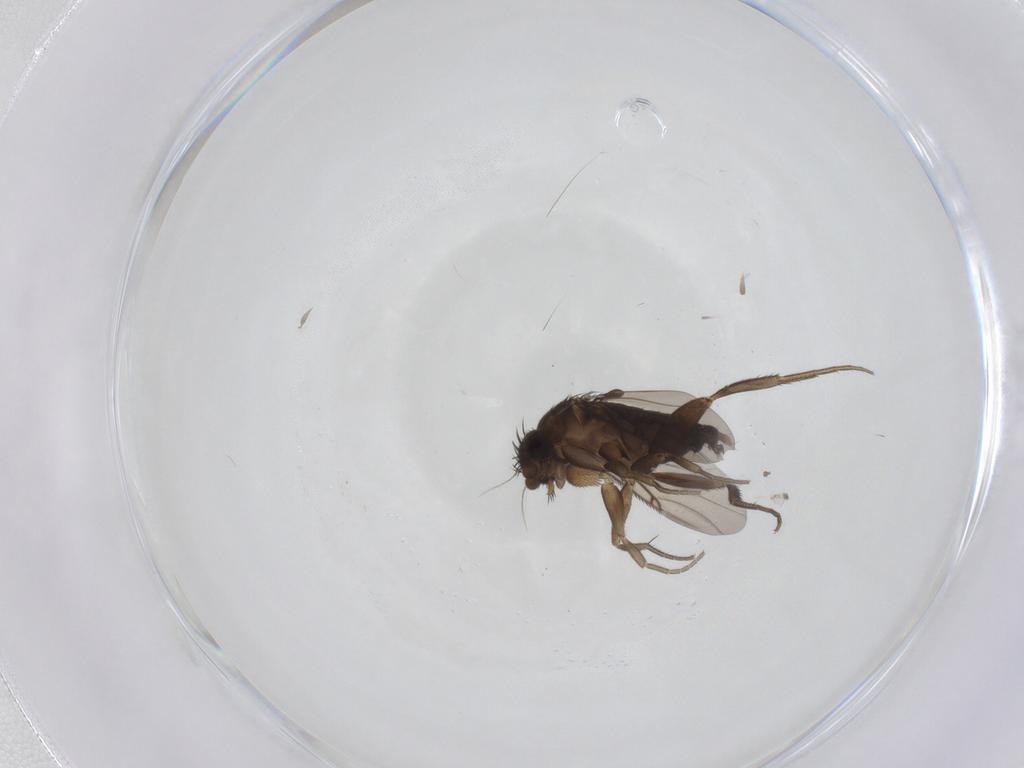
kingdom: Animalia
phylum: Arthropoda
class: Insecta
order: Diptera
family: Phoridae
